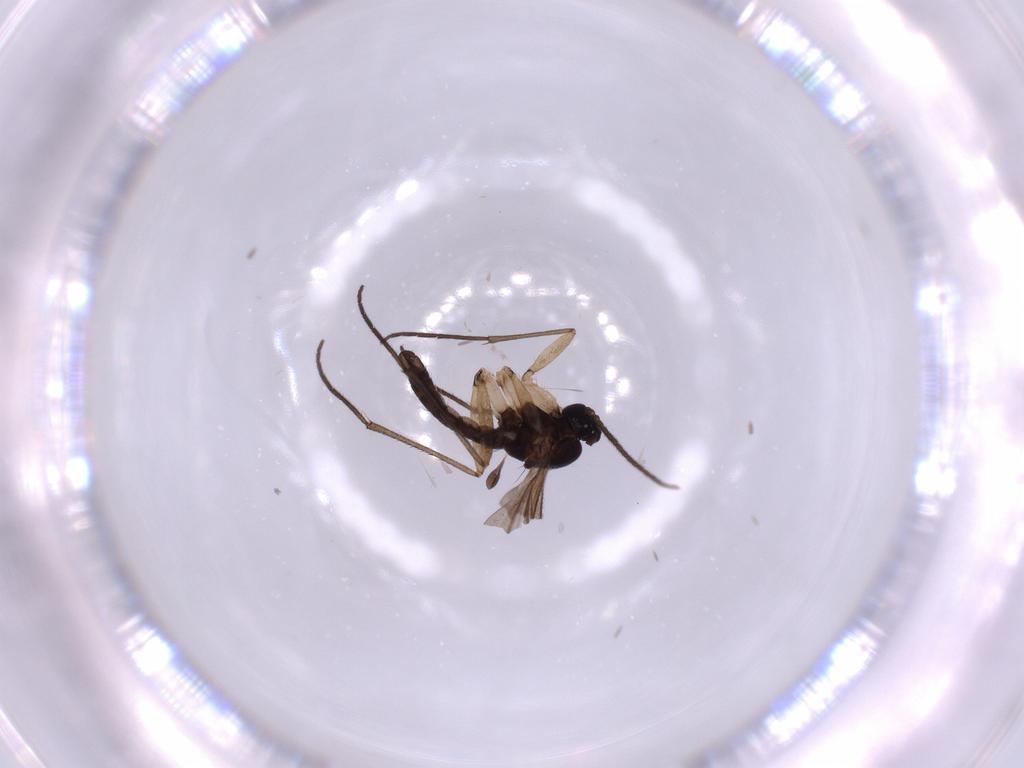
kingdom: Animalia
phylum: Arthropoda
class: Insecta
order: Diptera
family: Sciaridae
